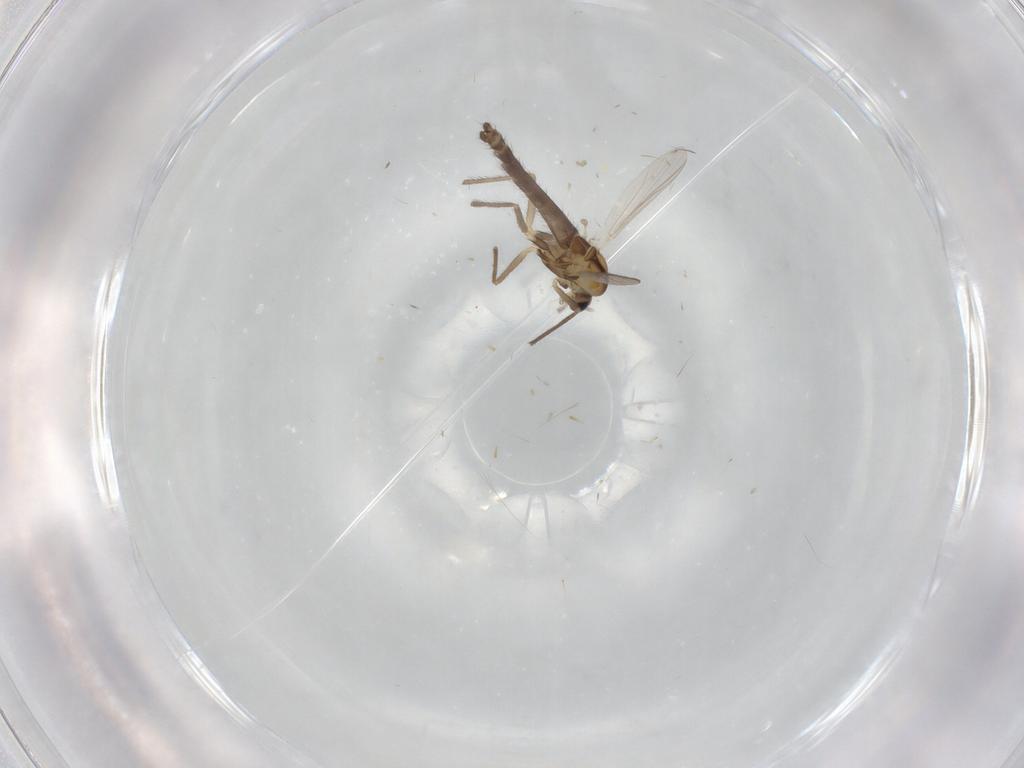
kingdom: Animalia
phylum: Arthropoda
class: Insecta
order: Diptera
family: Chironomidae
